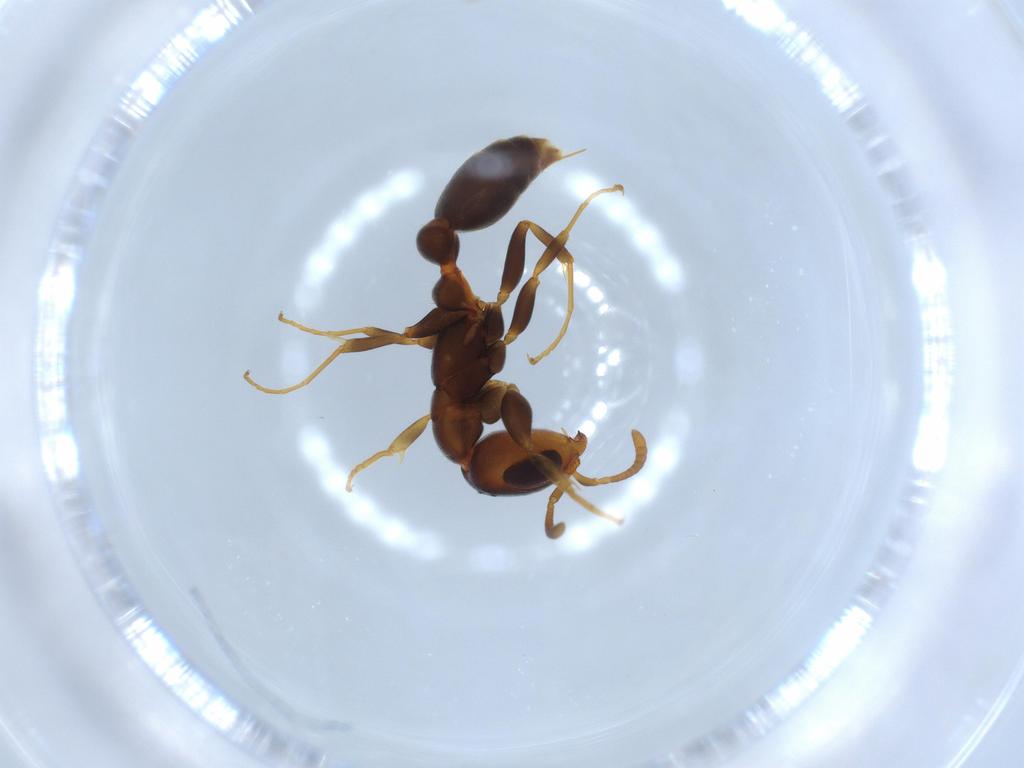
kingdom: Animalia
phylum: Arthropoda
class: Insecta
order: Hymenoptera
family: Formicidae
